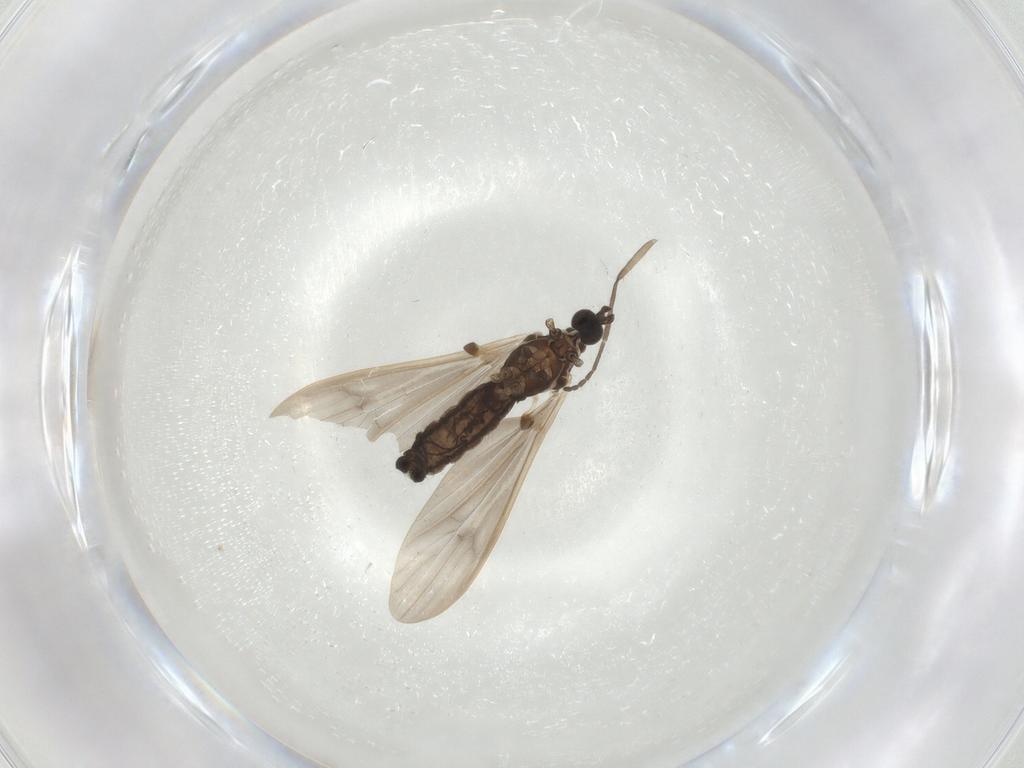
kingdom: Animalia
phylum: Arthropoda
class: Insecta
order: Diptera
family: Limoniidae
